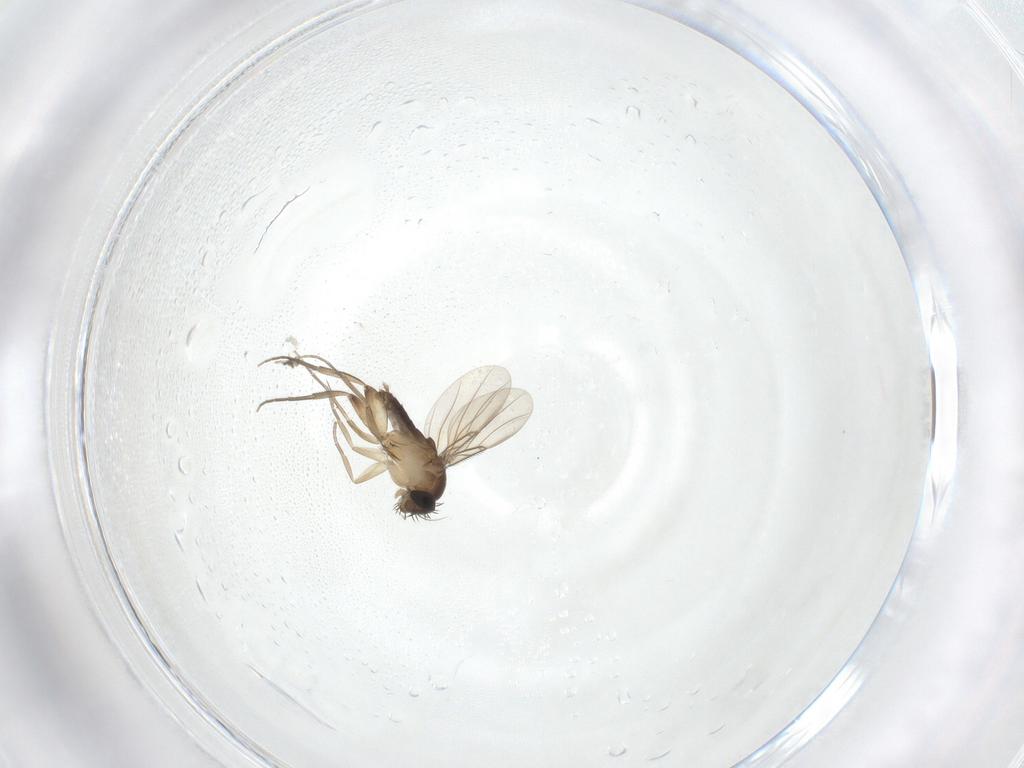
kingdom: Animalia
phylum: Arthropoda
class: Insecta
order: Diptera
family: Phoridae
